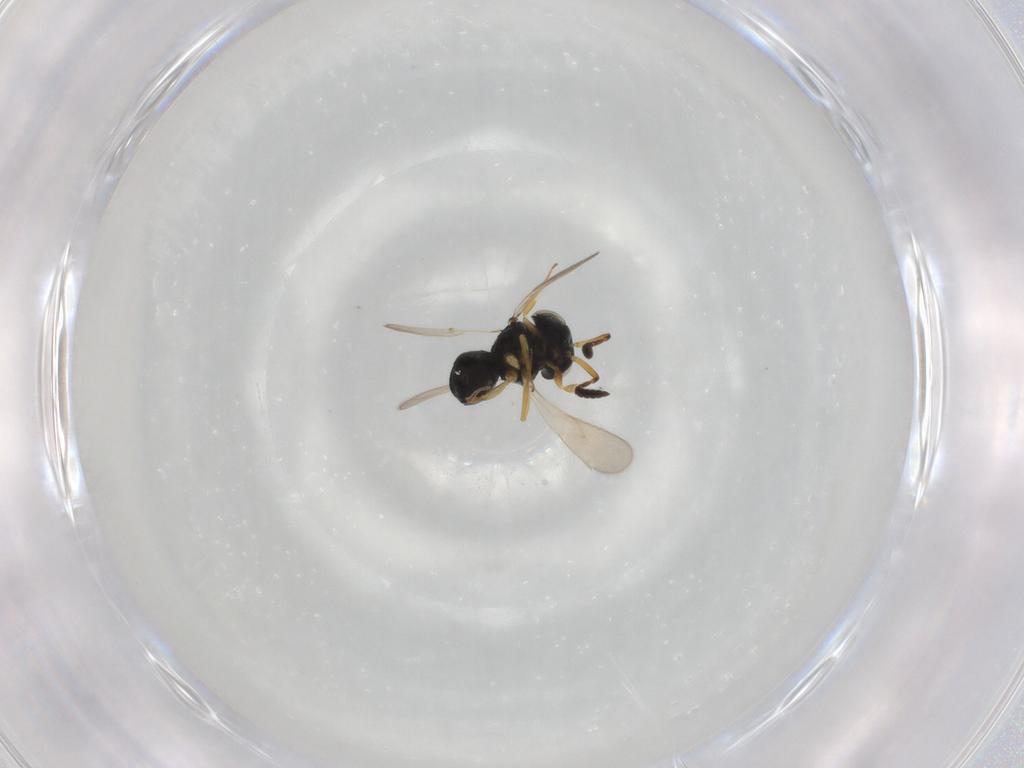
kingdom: Animalia
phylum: Arthropoda
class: Insecta
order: Hymenoptera
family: Scelionidae
